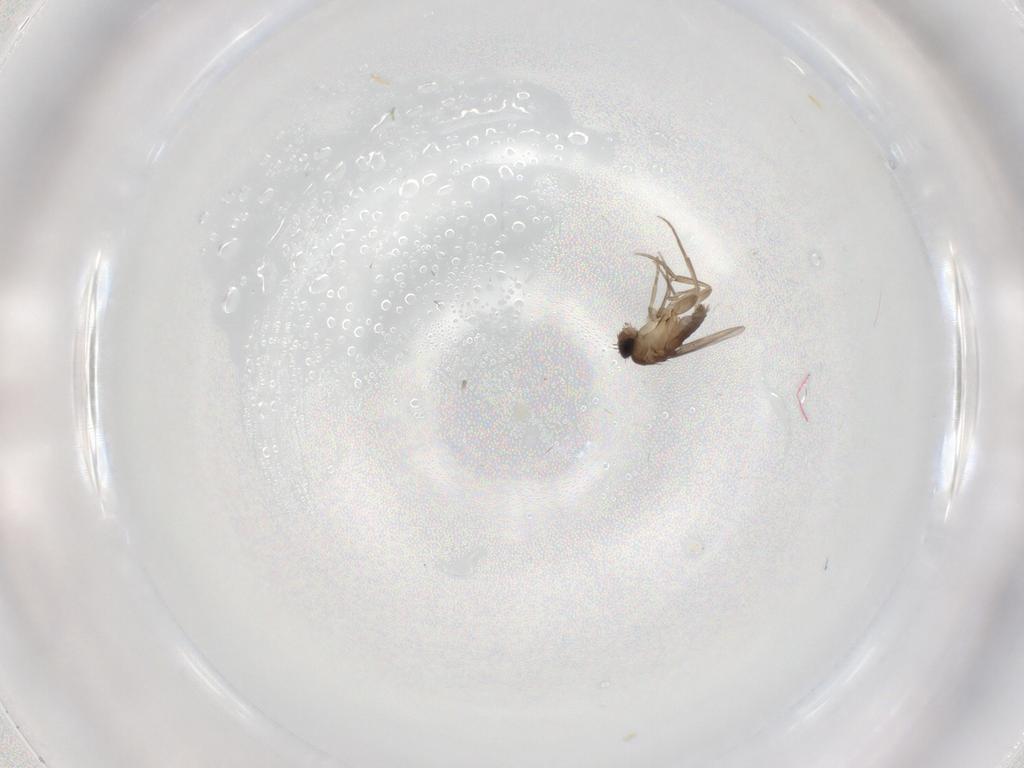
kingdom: Animalia
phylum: Arthropoda
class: Insecta
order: Diptera
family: Phoridae
